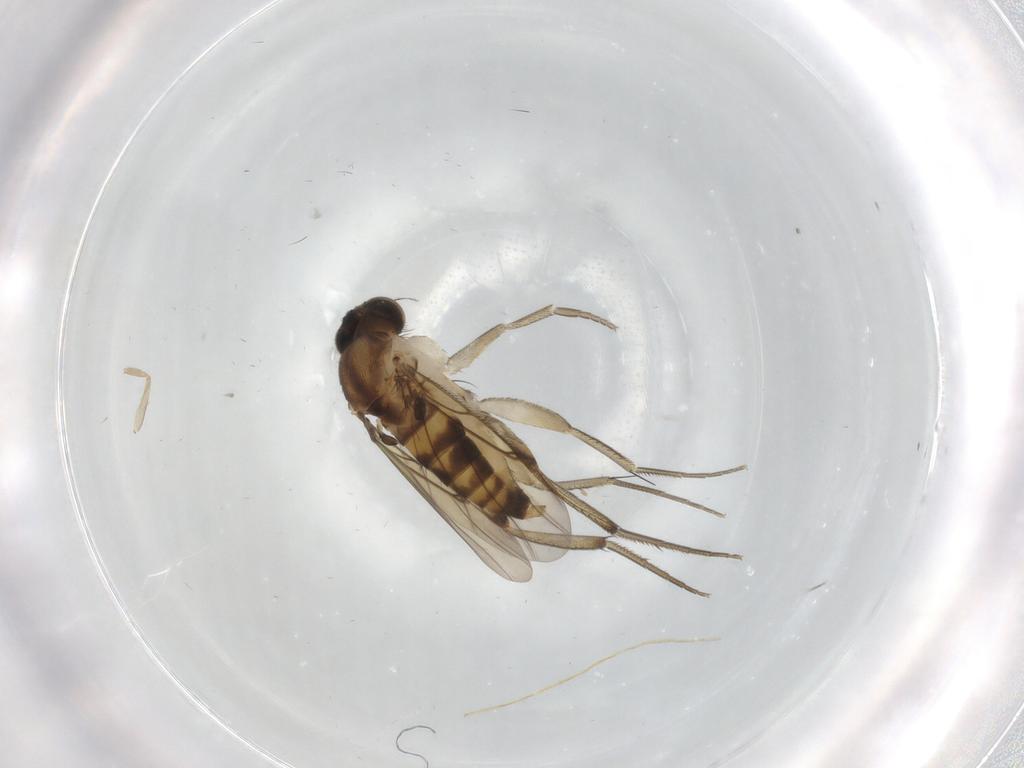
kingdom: Animalia
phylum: Arthropoda
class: Insecta
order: Diptera
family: Phoridae
